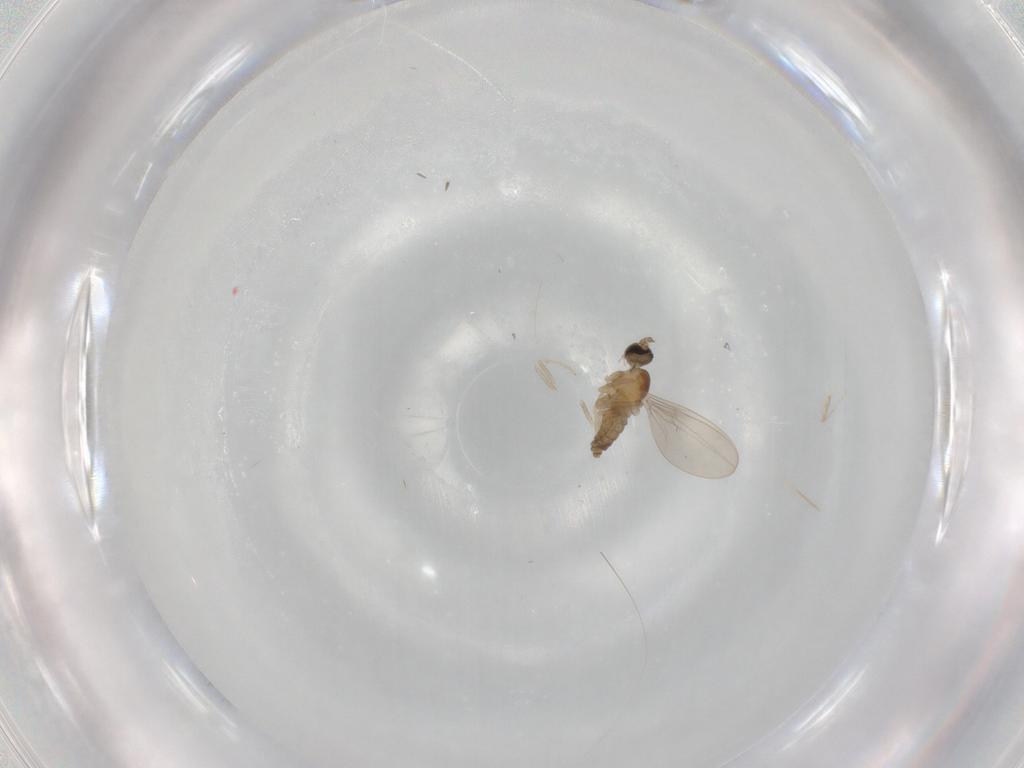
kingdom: Animalia
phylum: Arthropoda
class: Insecta
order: Diptera
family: Cecidomyiidae
